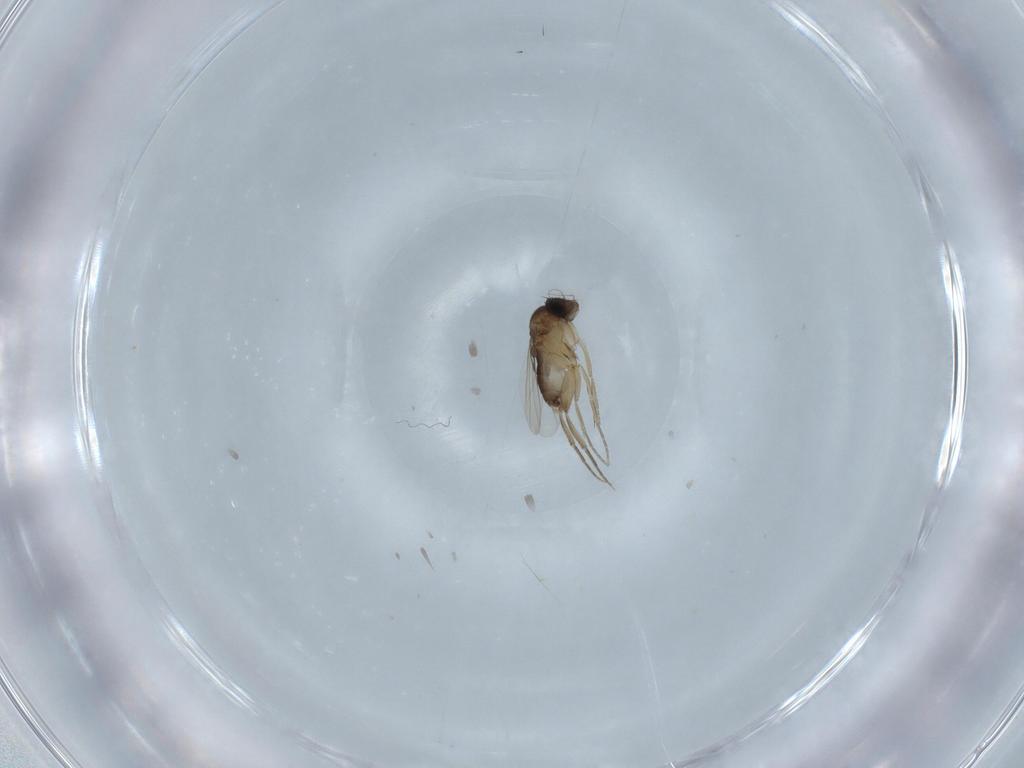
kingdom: Animalia
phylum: Arthropoda
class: Insecta
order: Diptera
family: Phoridae
